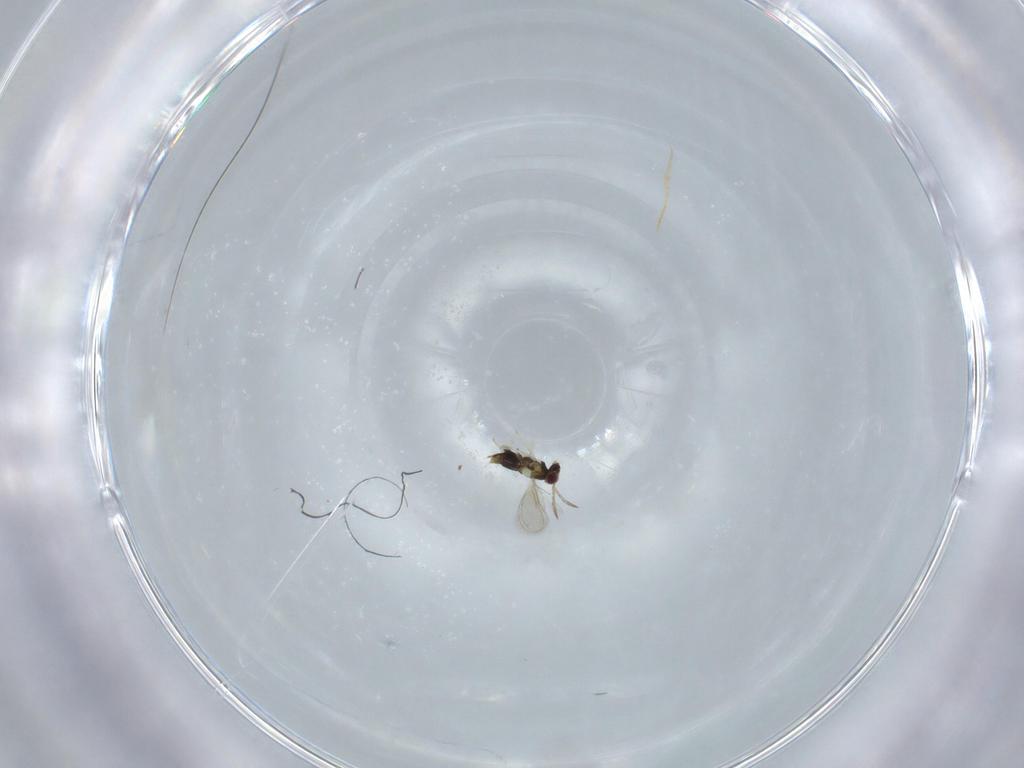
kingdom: Animalia
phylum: Arthropoda
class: Insecta
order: Hymenoptera
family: Aphelinidae
